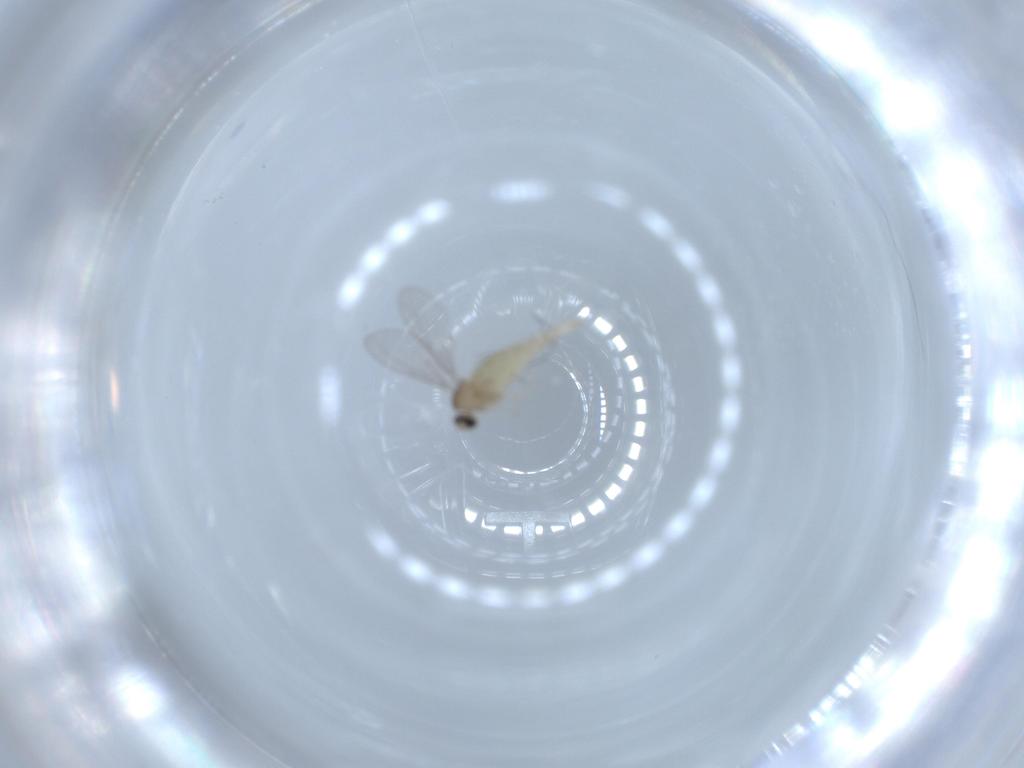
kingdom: Animalia
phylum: Arthropoda
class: Insecta
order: Diptera
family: Cecidomyiidae
